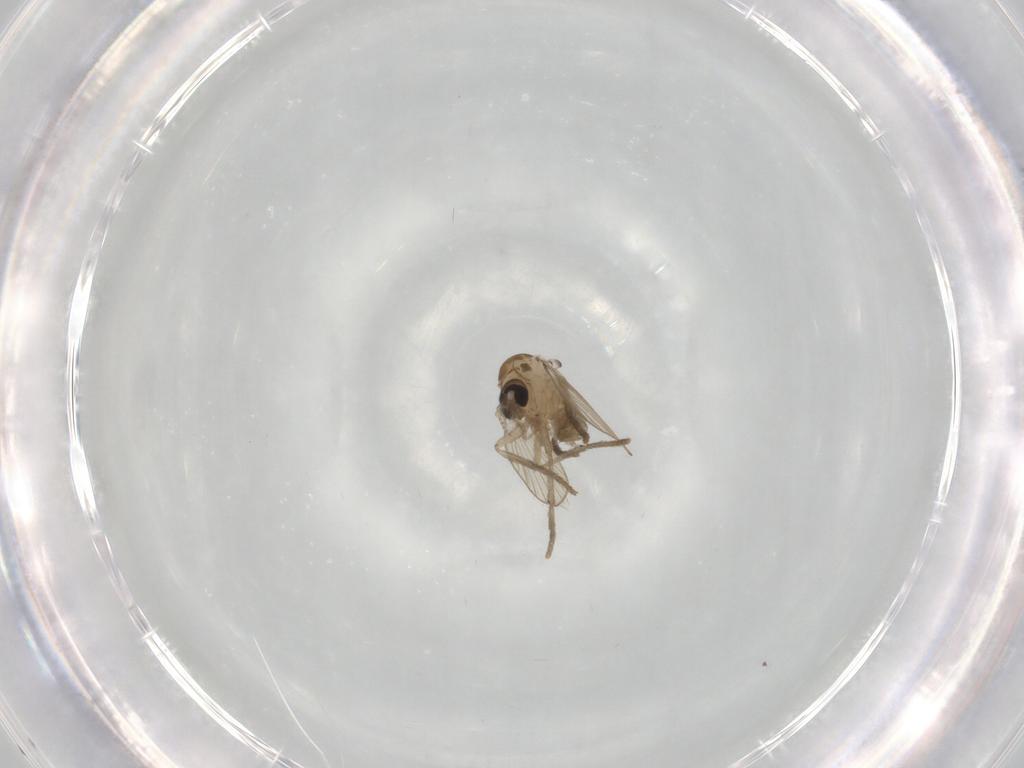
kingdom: Animalia
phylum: Arthropoda
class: Insecta
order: Diptera
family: Psychodidae
